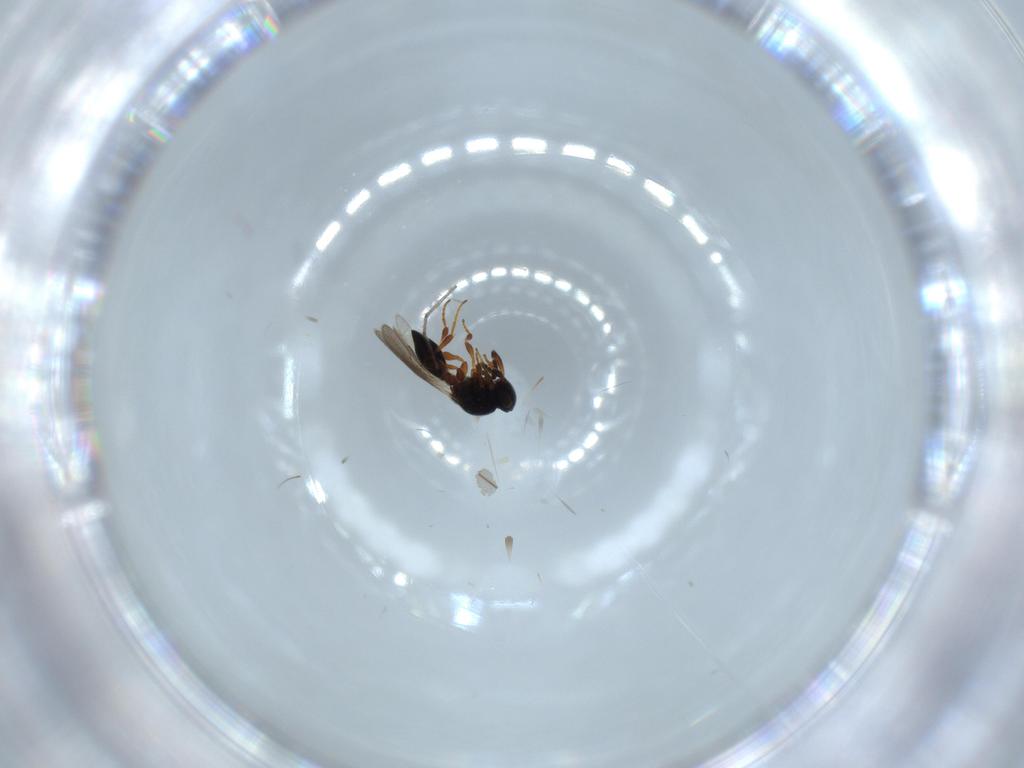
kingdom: Animalia
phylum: Arthropoda
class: Insecta
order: Hymenoptera
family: Platygastridae
